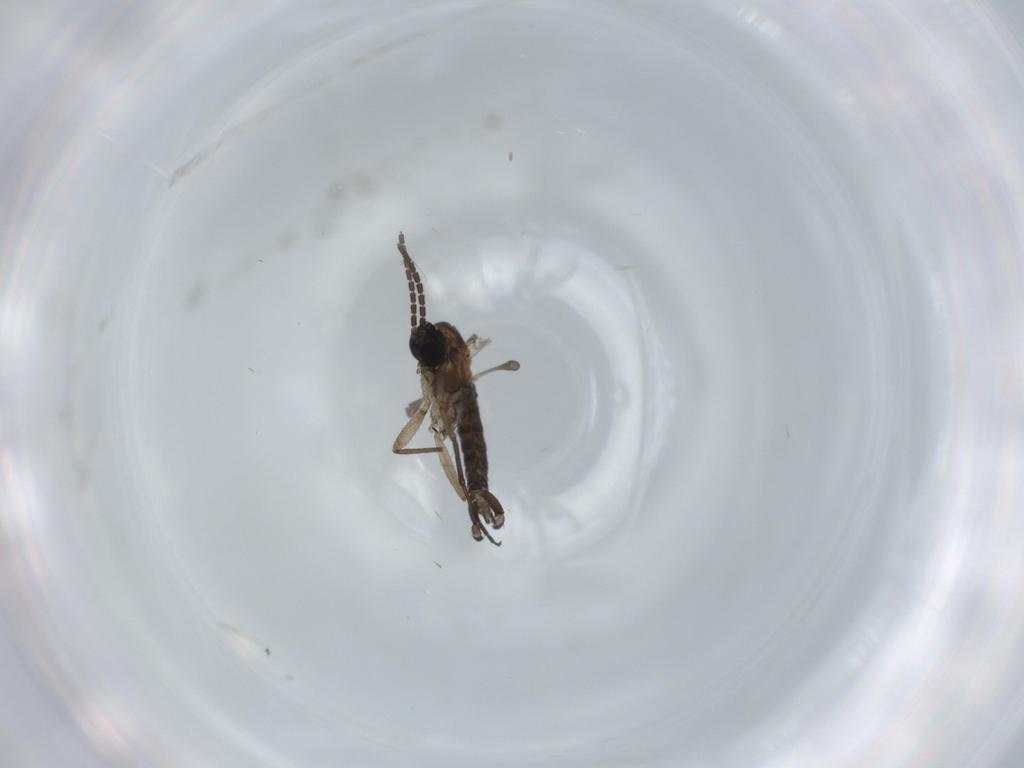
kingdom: Animalia
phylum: Arthropoda
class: Insecta
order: Diptera
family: Sciaridae
